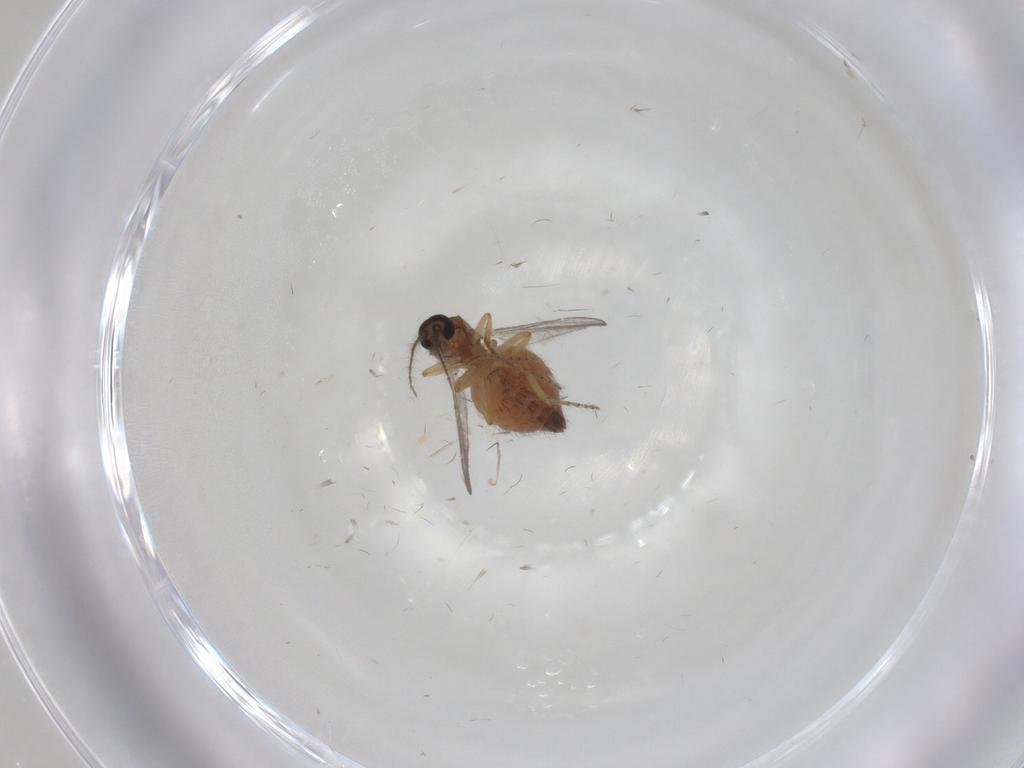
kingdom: Animalia
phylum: Arthropoda
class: Insecta
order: Diptera
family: Ceratopogonidae
